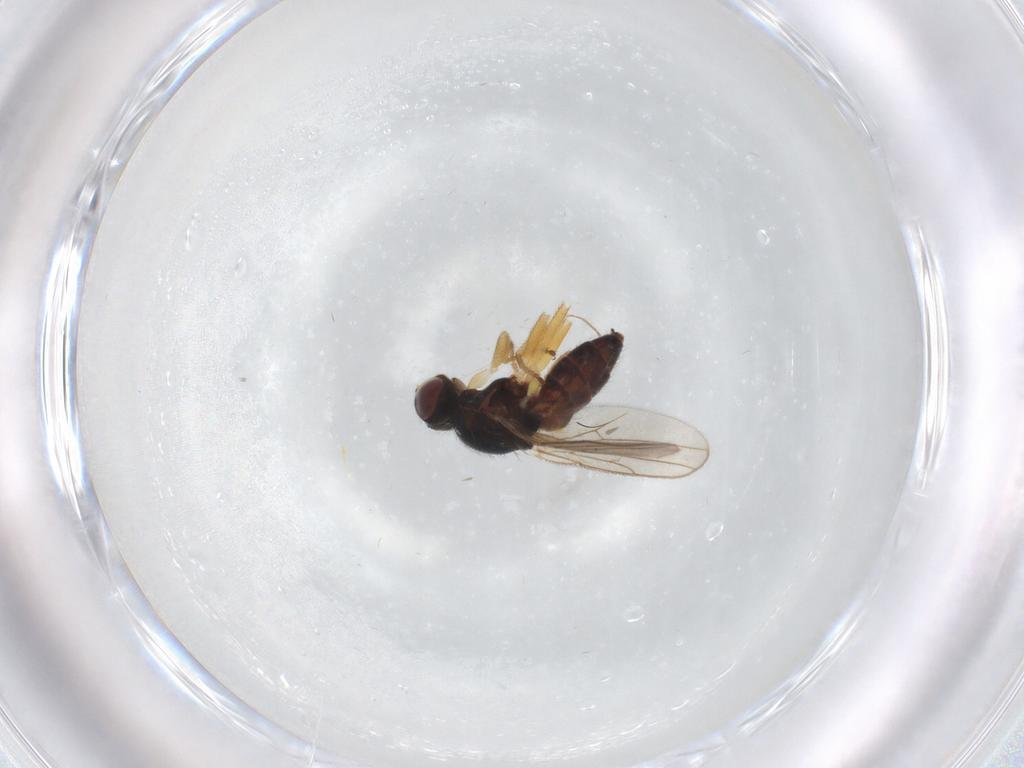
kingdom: Animalia
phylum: Arthropoda
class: Insecta
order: Diptera
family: Chloropidae
